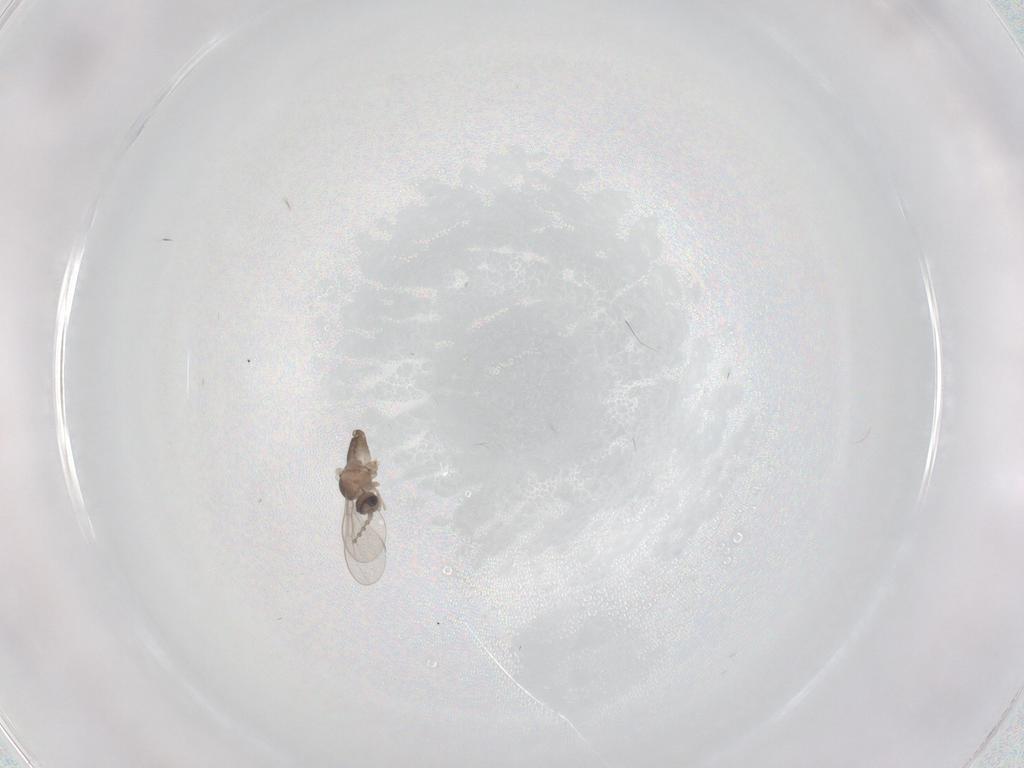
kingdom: Animalia
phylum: Arthropoda
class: Insecta
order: Diptera
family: Cecidomyiidae
